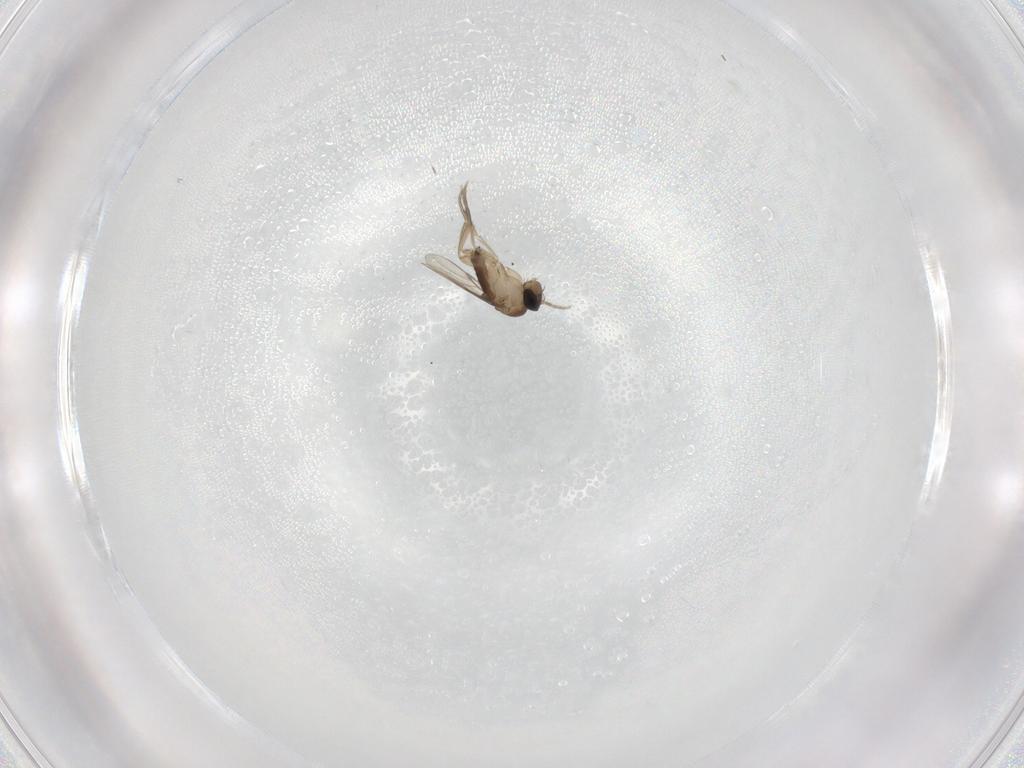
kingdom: Animalia
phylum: Arthropoda
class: Insecta
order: Diptera
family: Phoridae
